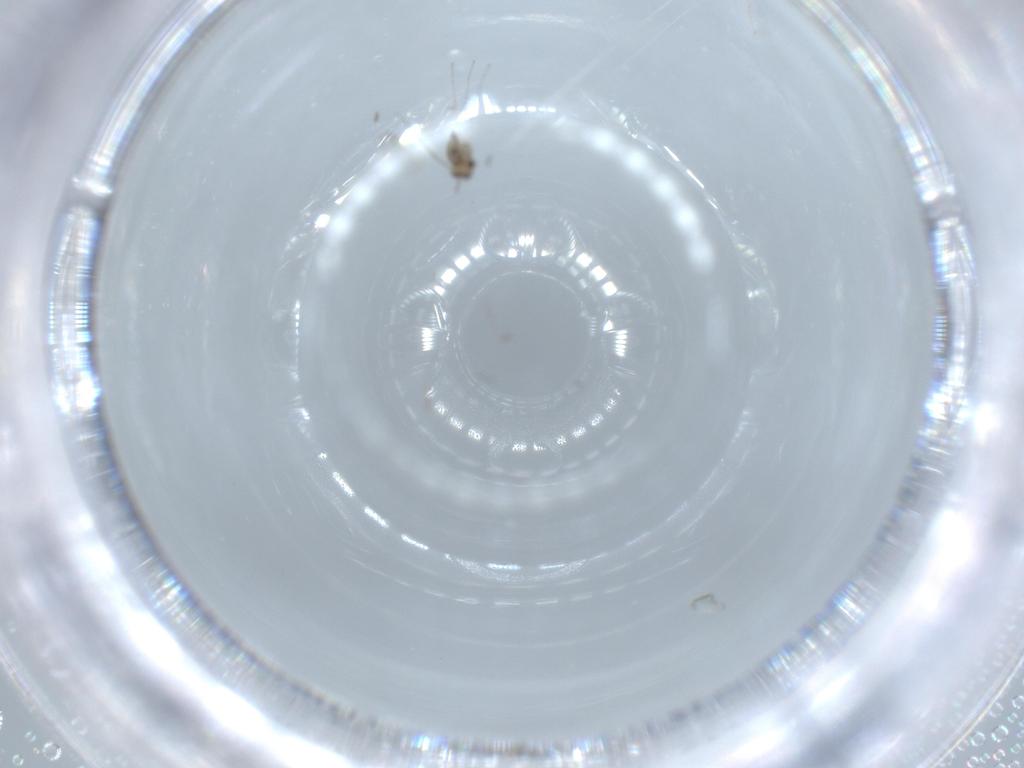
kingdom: Animalia
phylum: Arthropoda
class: Insecta
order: Diptera
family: Sciaridae
